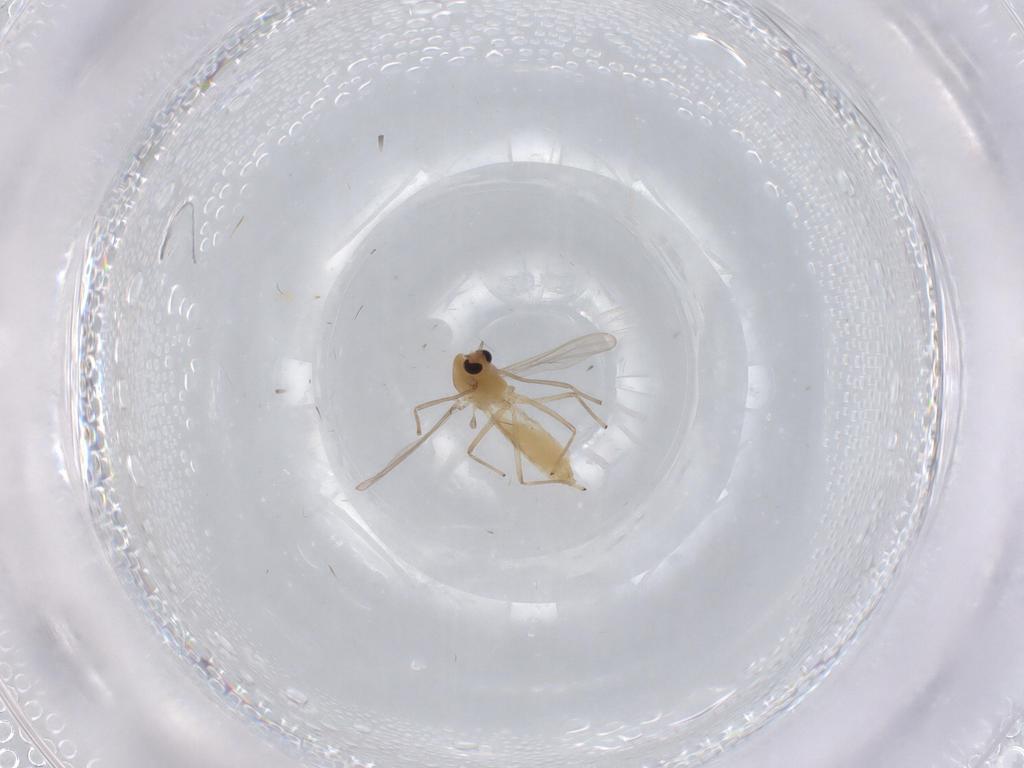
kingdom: Animalia
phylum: Arthropoda
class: Insecta
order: Diptera
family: Chironomidae
